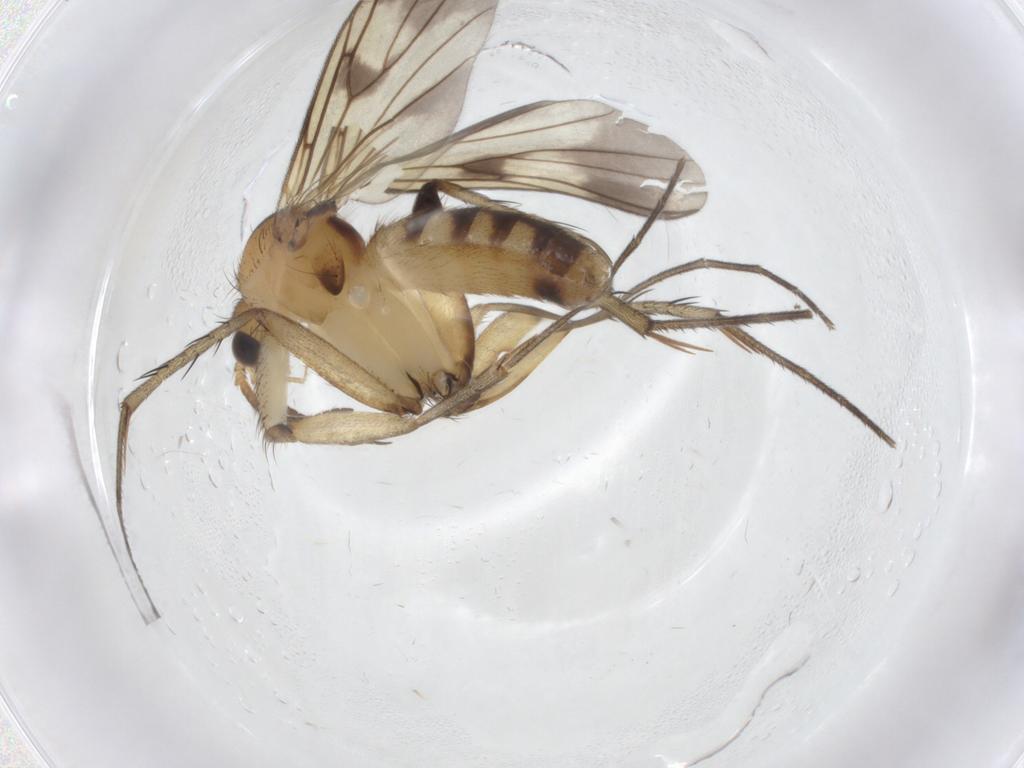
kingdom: Animalia
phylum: Arthropoda
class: Insecta
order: Diptera
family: Mycetophilidae
